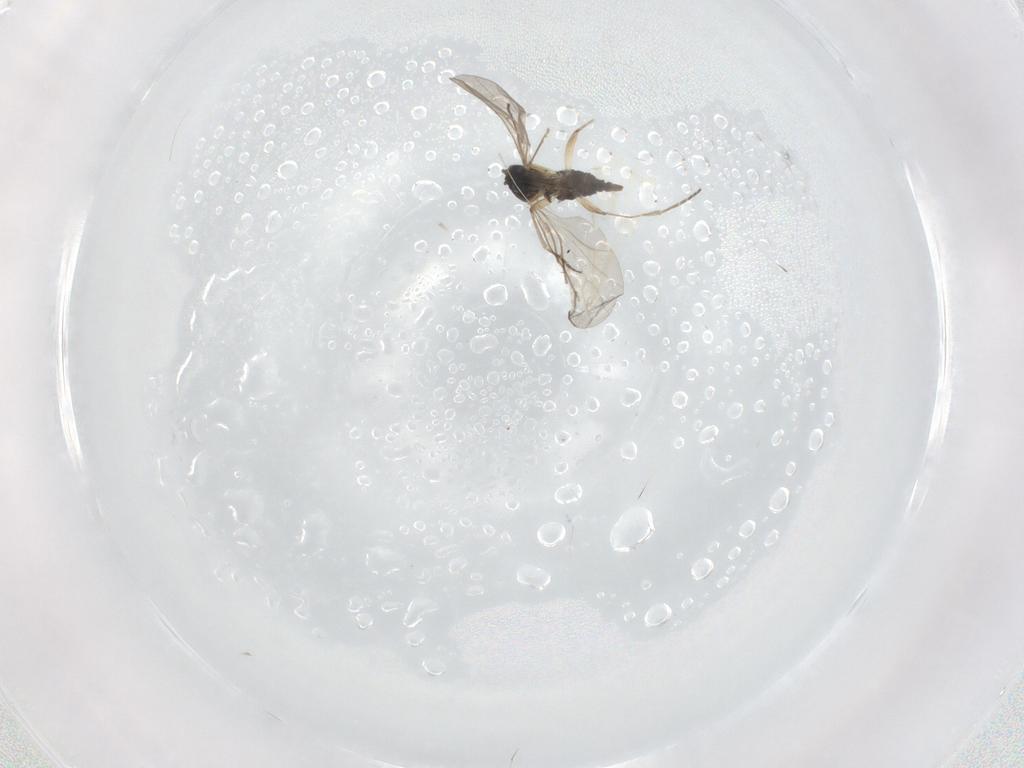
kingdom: Animalia
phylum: Arthropoda
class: Insecta
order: Diptera
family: Sciaridae
